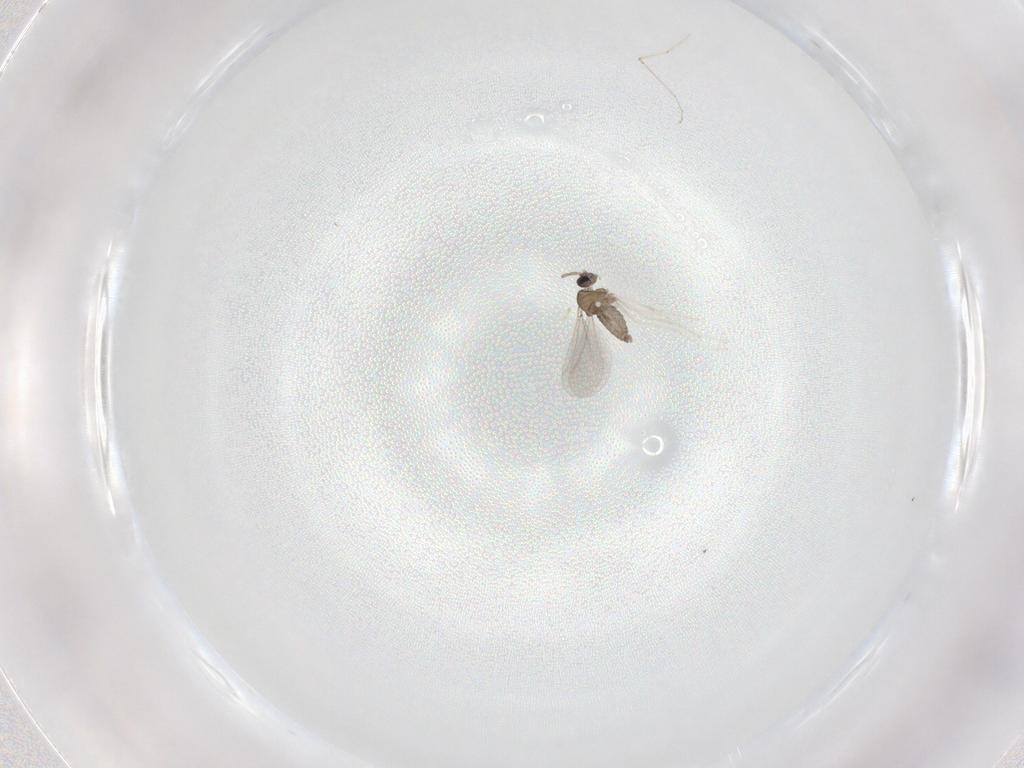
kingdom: Animalia
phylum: Arthropoda
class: Insecta
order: Diptera
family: Cecidomyiidae
